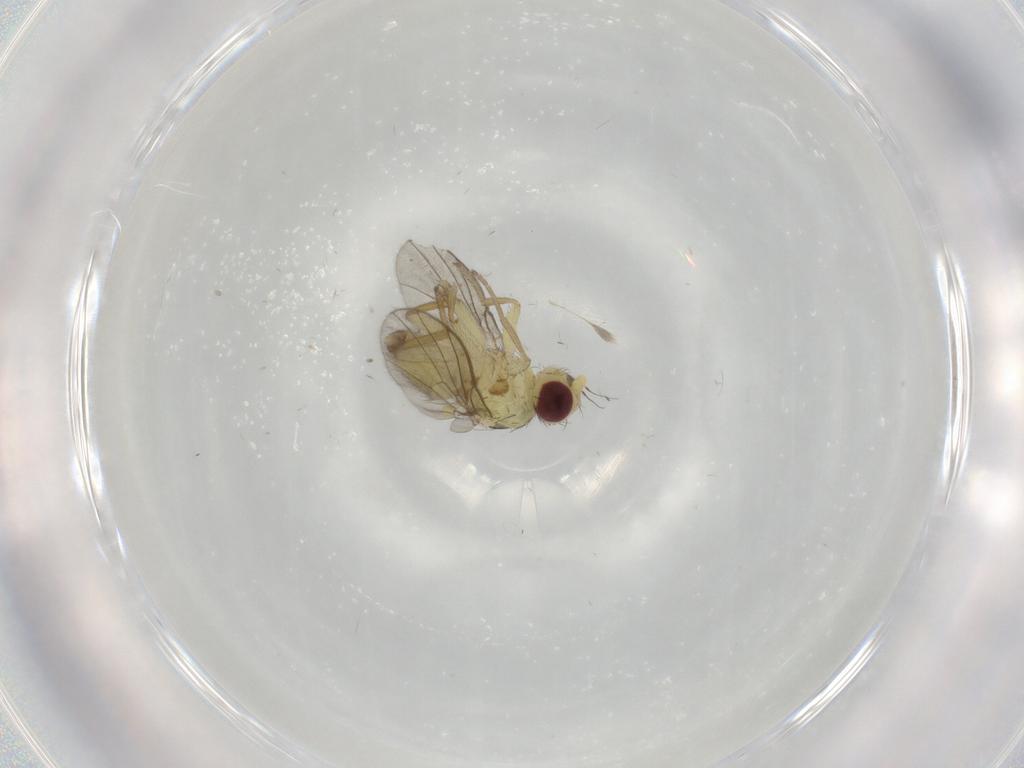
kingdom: Animalia
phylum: Arthropoda
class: Insecta
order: Diptera
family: Agromyzidae
